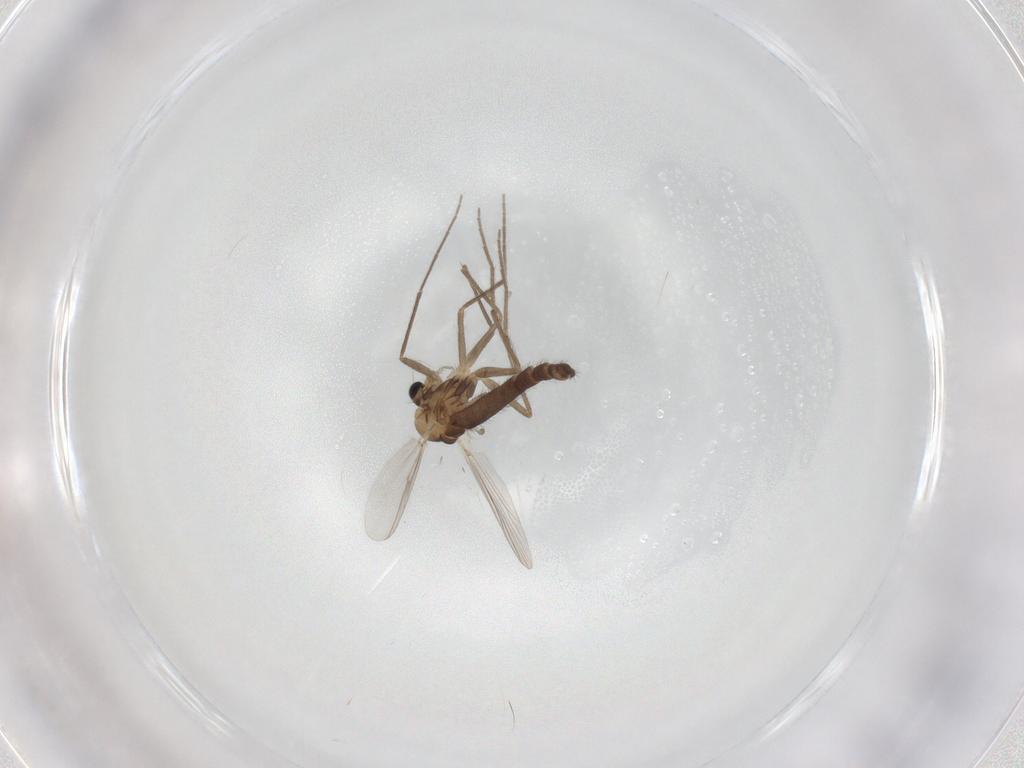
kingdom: Animalia
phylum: Arthropoda
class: Insecta
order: Diptera
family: Chironomidae
